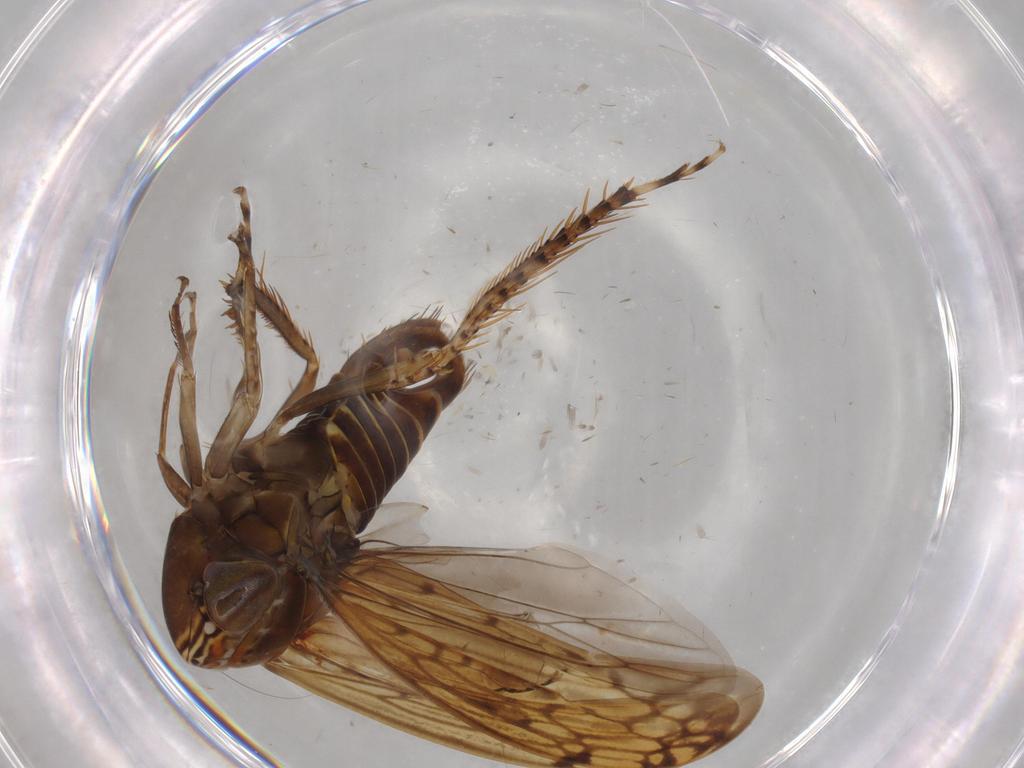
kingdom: Animalia
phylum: Arthropoda
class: Insecta
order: Hemiptera
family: Cicadellidae
